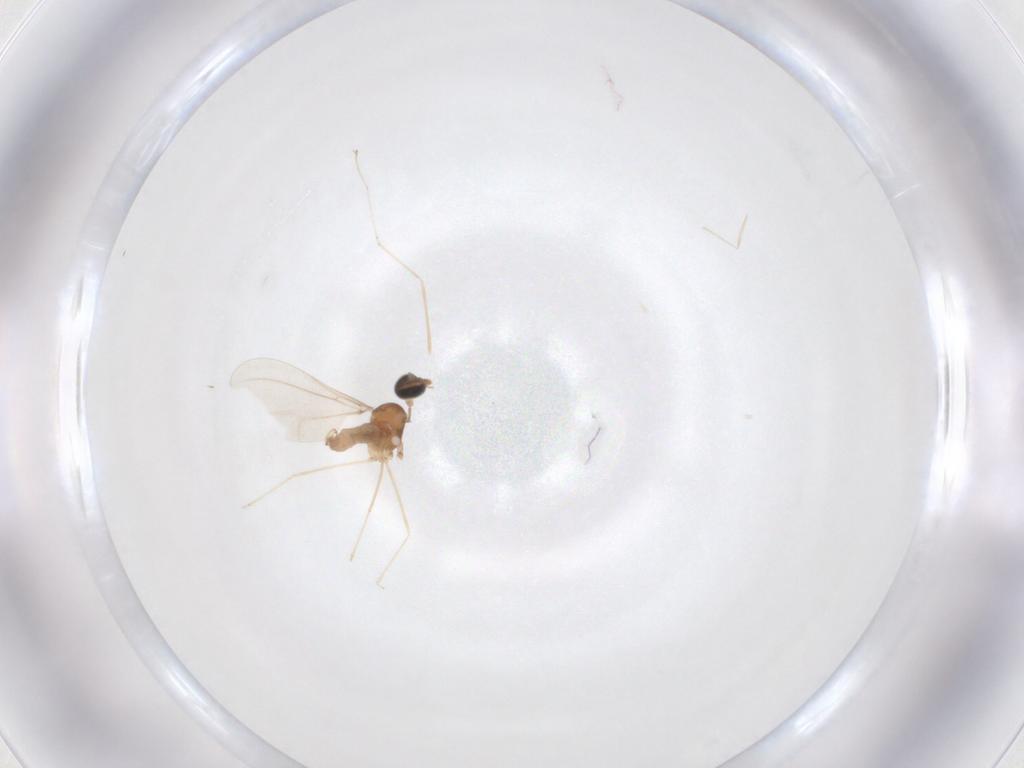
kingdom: Animalia
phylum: Arthropoda
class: Insecta
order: Diptera
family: Cecidomyiidae
